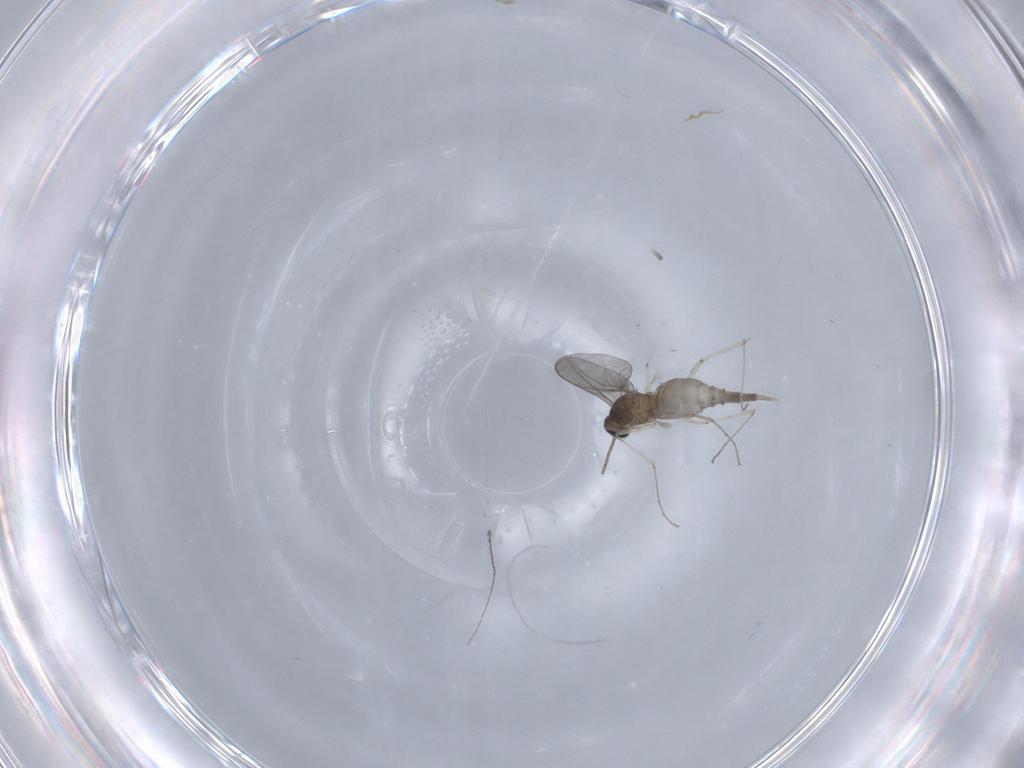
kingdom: Animalia
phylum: Arthropoda
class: Insecta
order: Diptera
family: Cecidomyiidae
